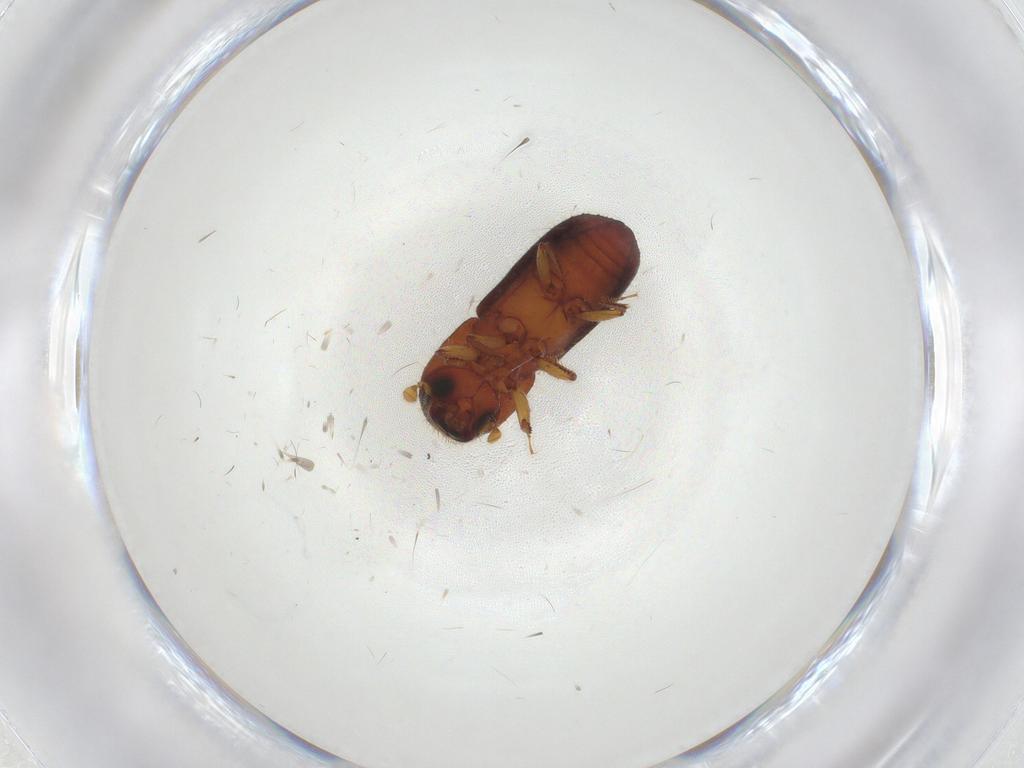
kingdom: Animalia
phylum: Arthropoda
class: Insecta
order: Coleoptera
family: Curculionidae
